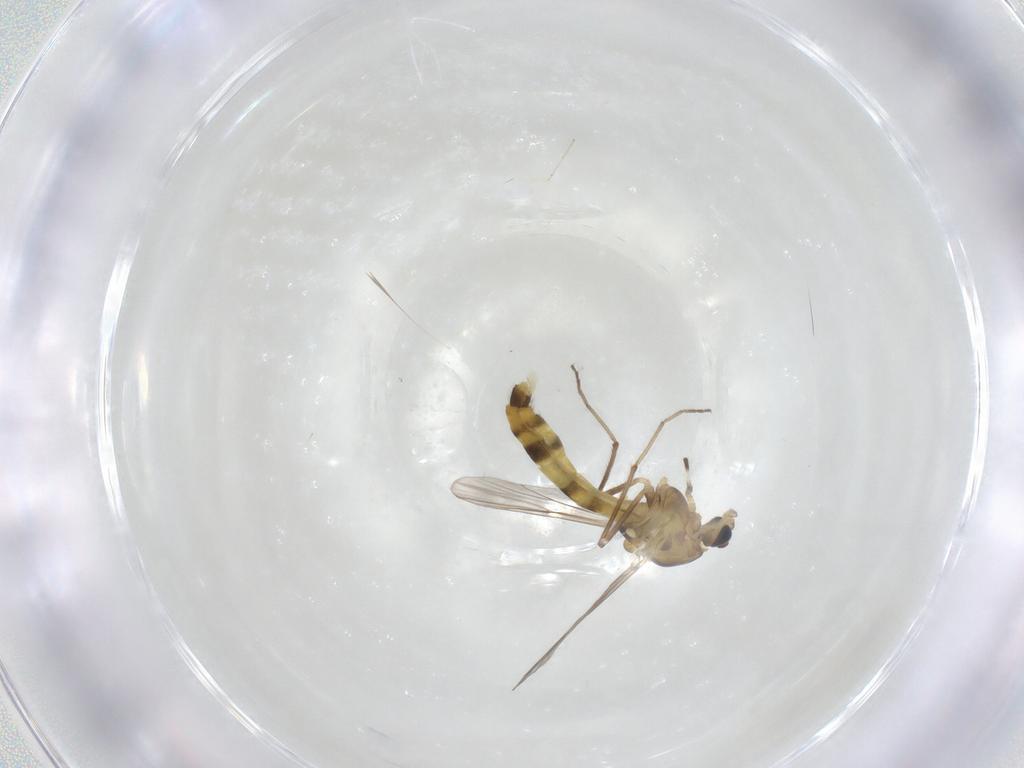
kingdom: Animalia
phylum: Arthropoda
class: Insecta
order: Diptera
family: Chironomidae
